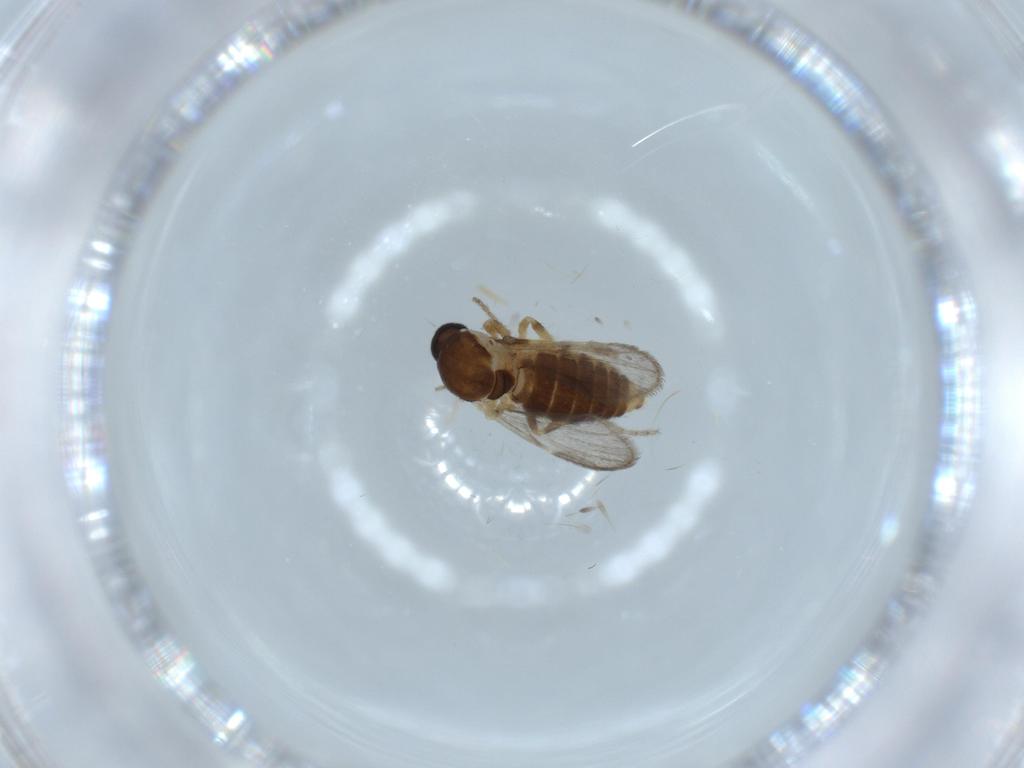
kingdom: Animalia
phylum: Arthropoda
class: Insecta
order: Diptera
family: Ceratopogonidae
